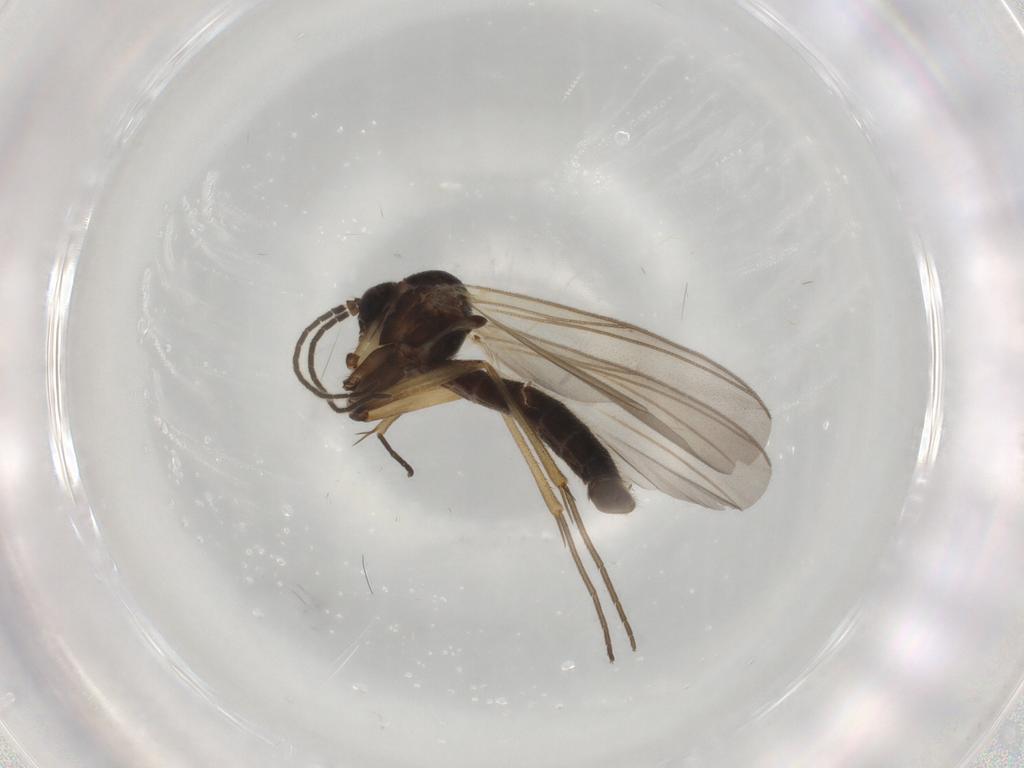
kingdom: Animalia
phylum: Arthropoda
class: Insecta
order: Diptera
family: Mycetophilidae
